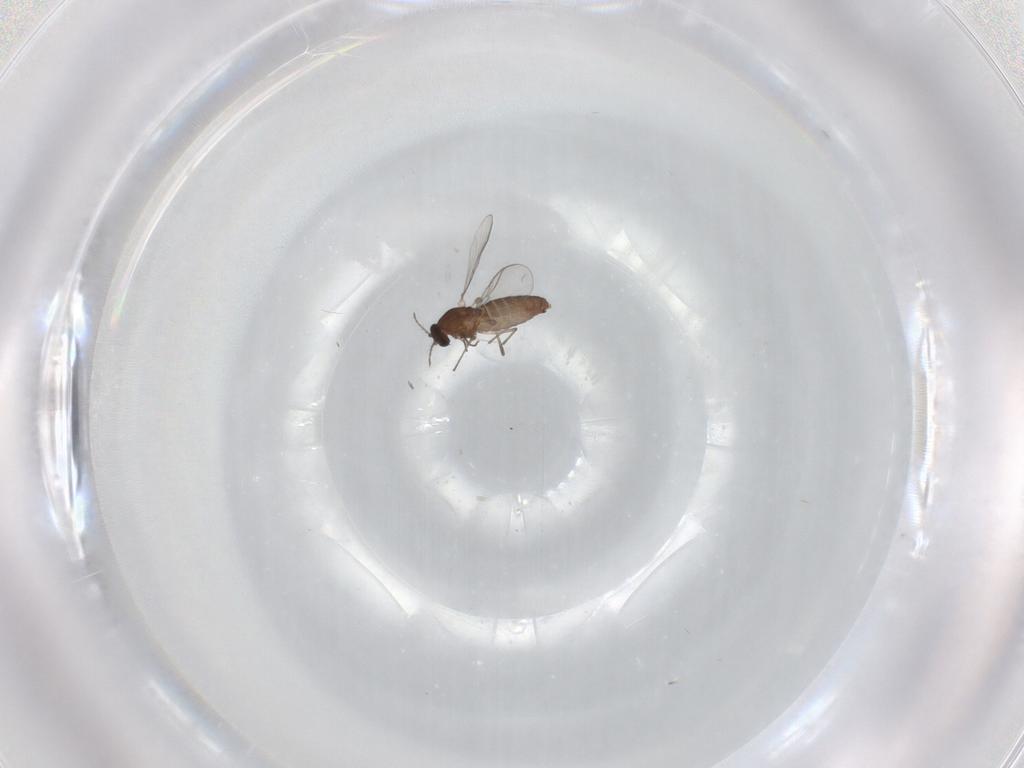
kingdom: Animalia
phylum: Arthropoda
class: Insecta
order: Diptera
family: Chironomidae
